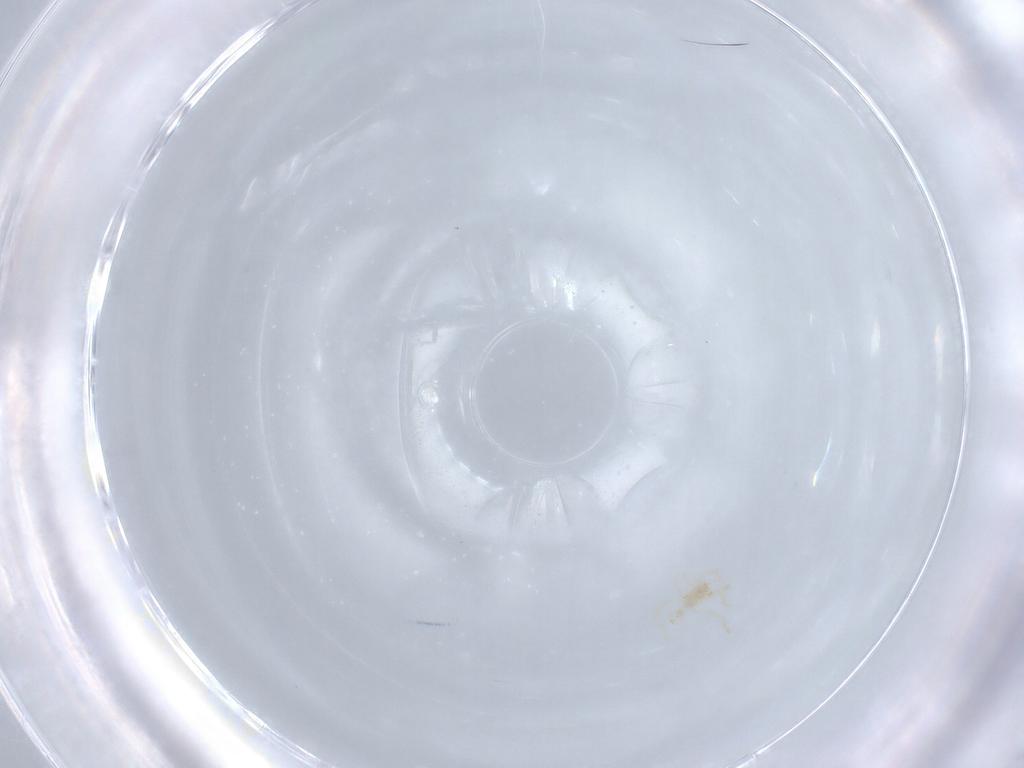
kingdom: Animalia
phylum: Arthropoda
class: Arachnida
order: Trombidiformes
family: Erythraeidae
